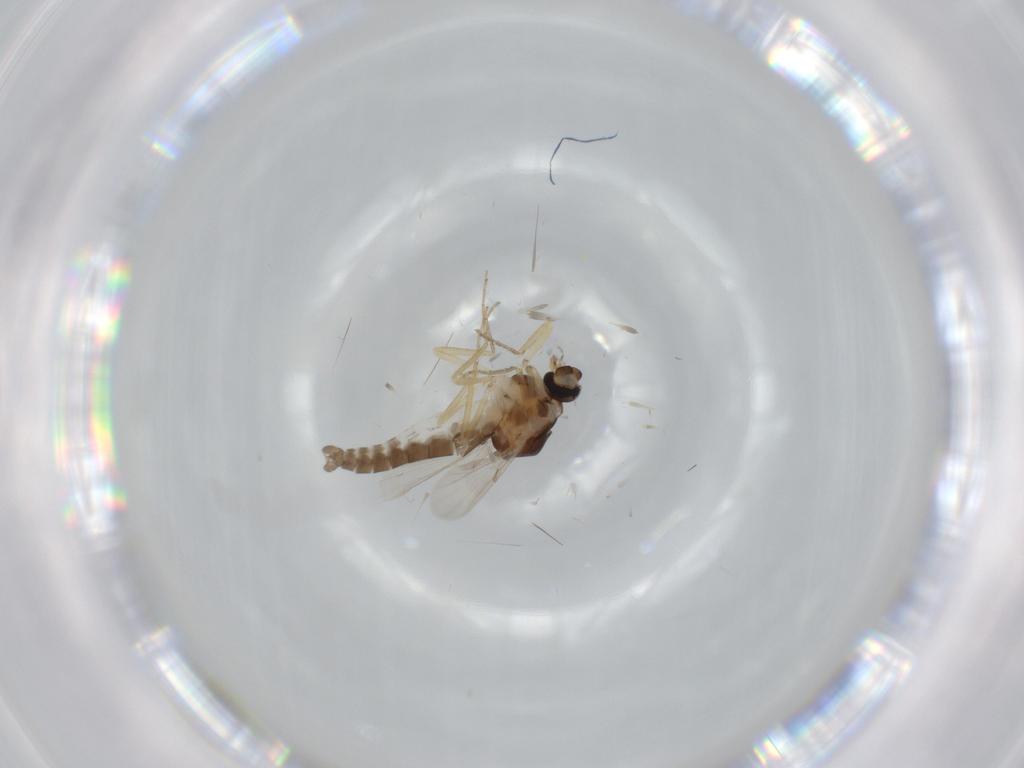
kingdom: Animalia
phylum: Arthropoda
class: Insecta
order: Diptera
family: Ceratopogonidae
